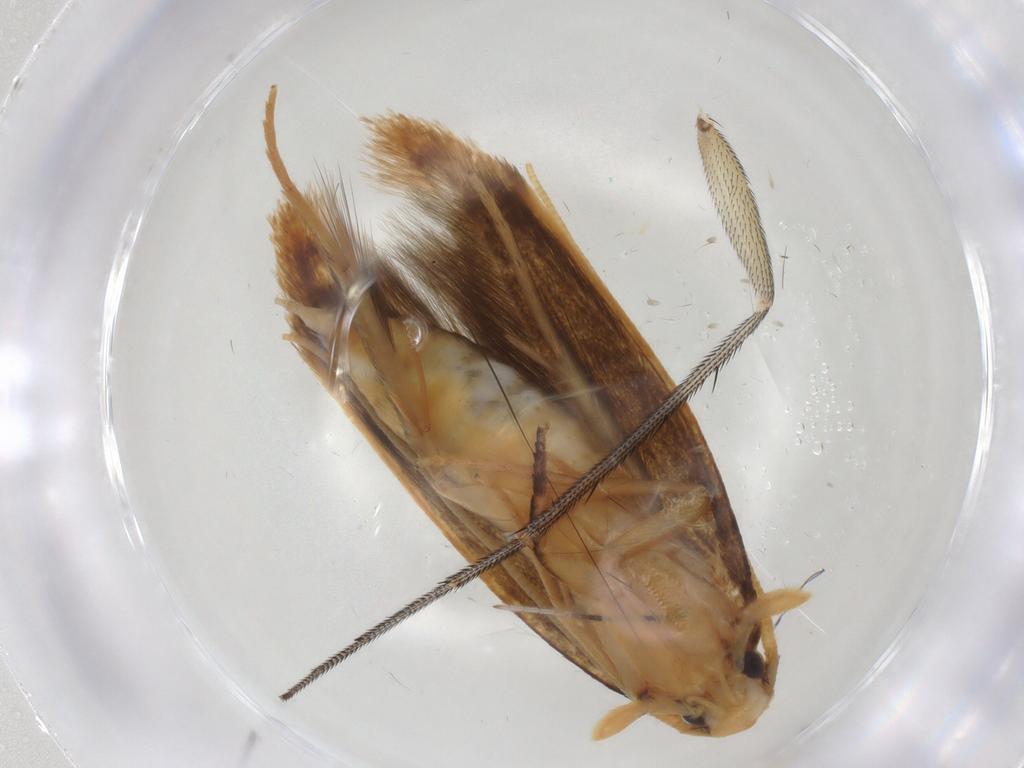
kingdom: Animalia
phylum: Arthropoda
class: Insecta
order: Lepidoptera
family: Tineidae
